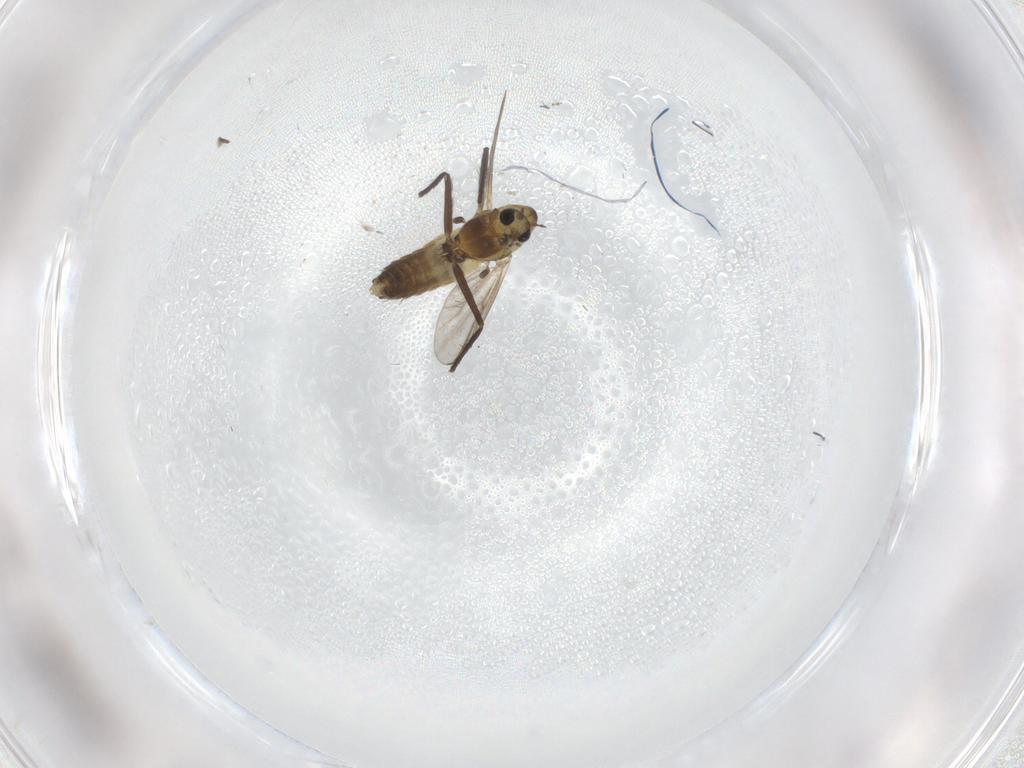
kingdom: Animalia
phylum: Arthropoda
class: Insecta
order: Diptera
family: Chironomidae
